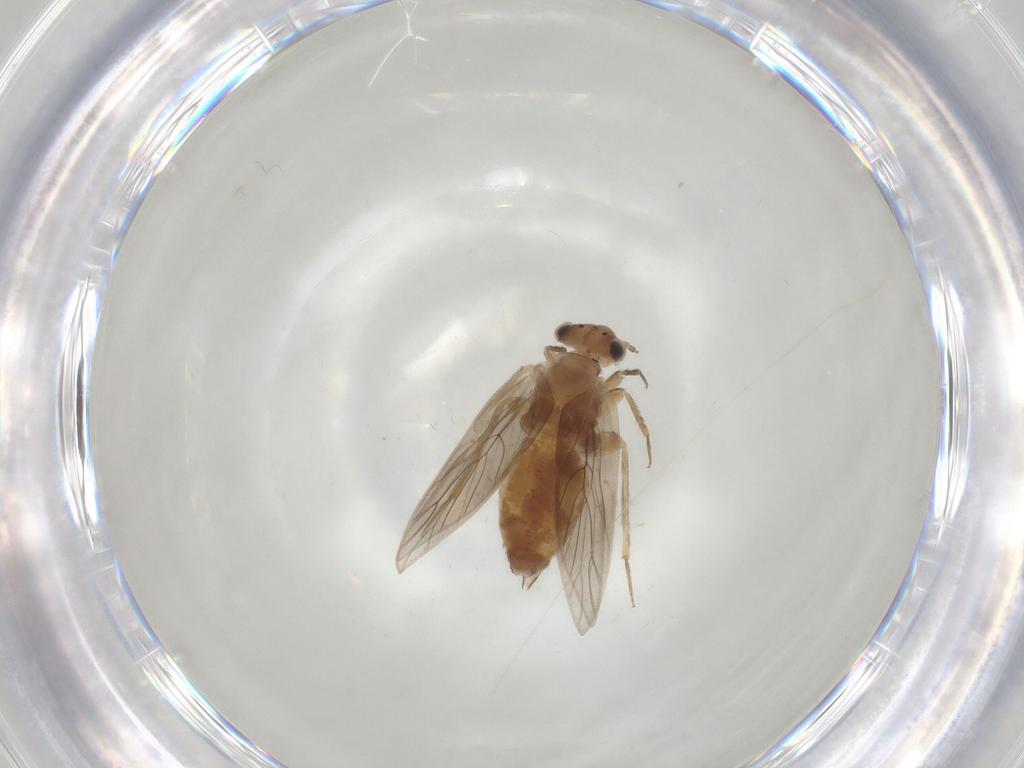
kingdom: Animalia
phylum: Arthropoda
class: Insecta
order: Psocodea
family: Lepidopsocidae
